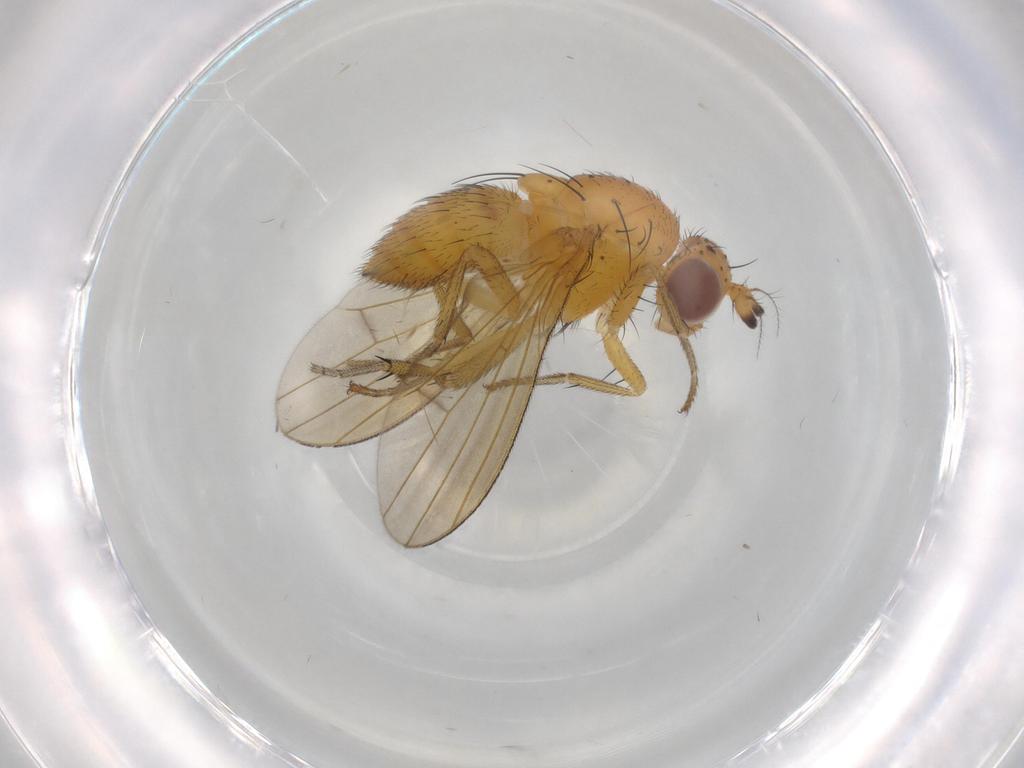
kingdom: Animalia
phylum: Arthropoda
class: Insecta
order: Diptera
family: Lauxaniidae
